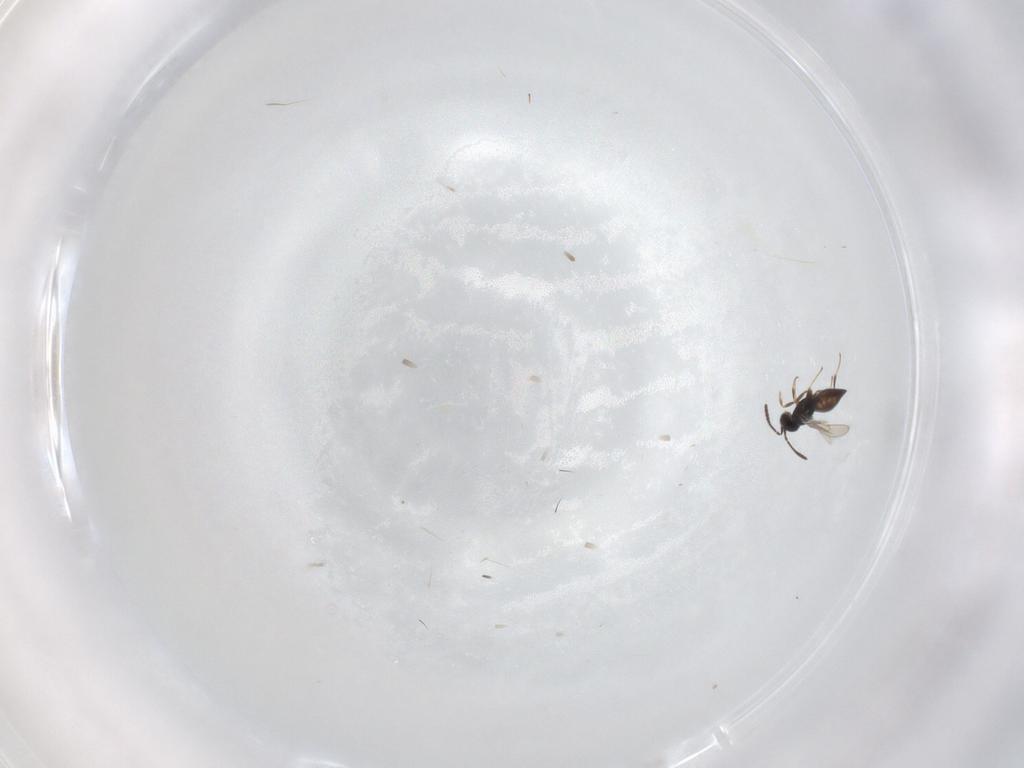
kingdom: Animalia
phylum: Arthropoda
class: Insecta
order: Hymenoptera
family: Scelionidae
